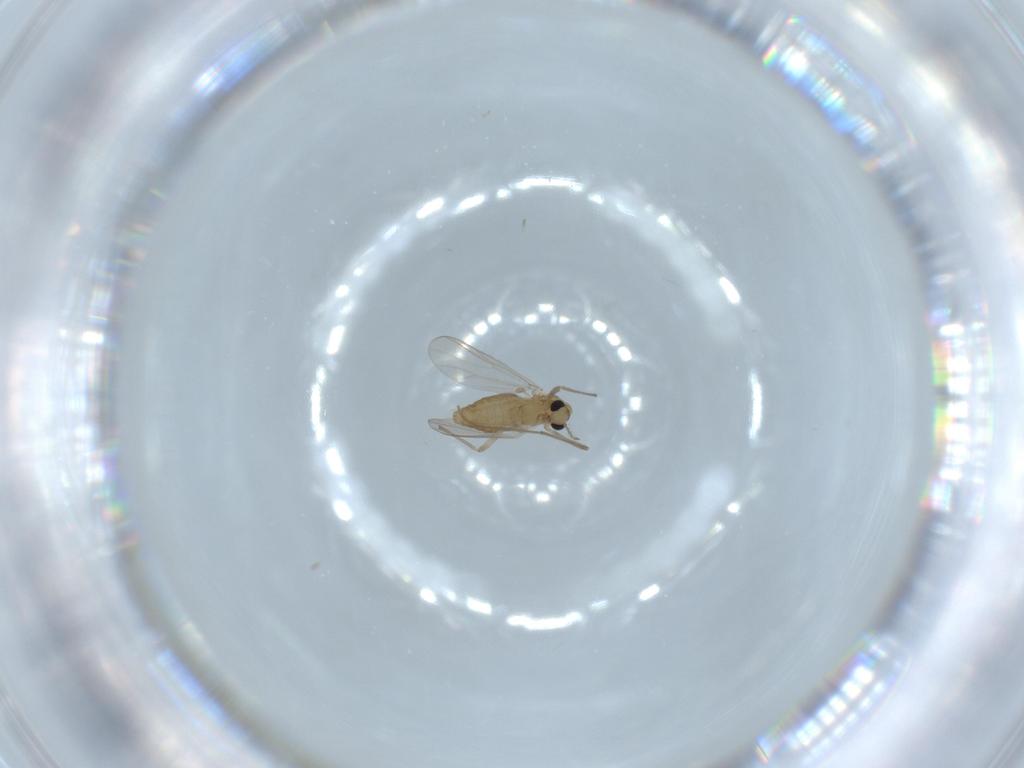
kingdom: Animalia
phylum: Arthropoda
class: Insecta
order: Diptera
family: Chironomidae
